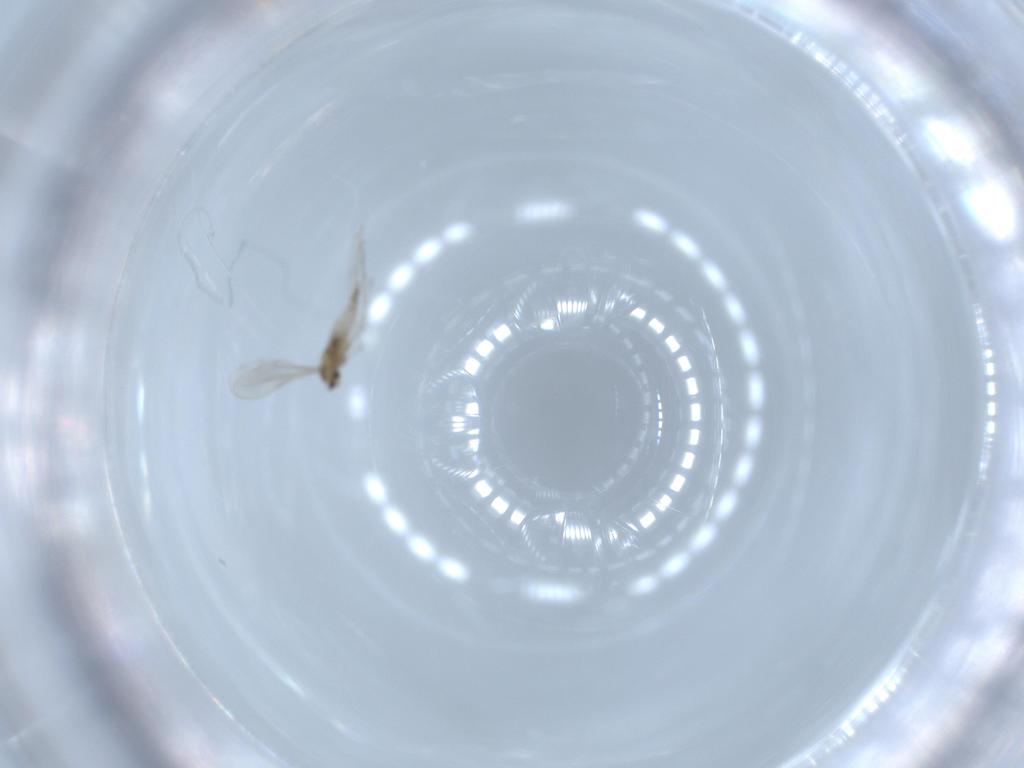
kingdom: Animalia
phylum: Arthropoda
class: Insecta
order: Diptera
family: Cecidomyiidae
